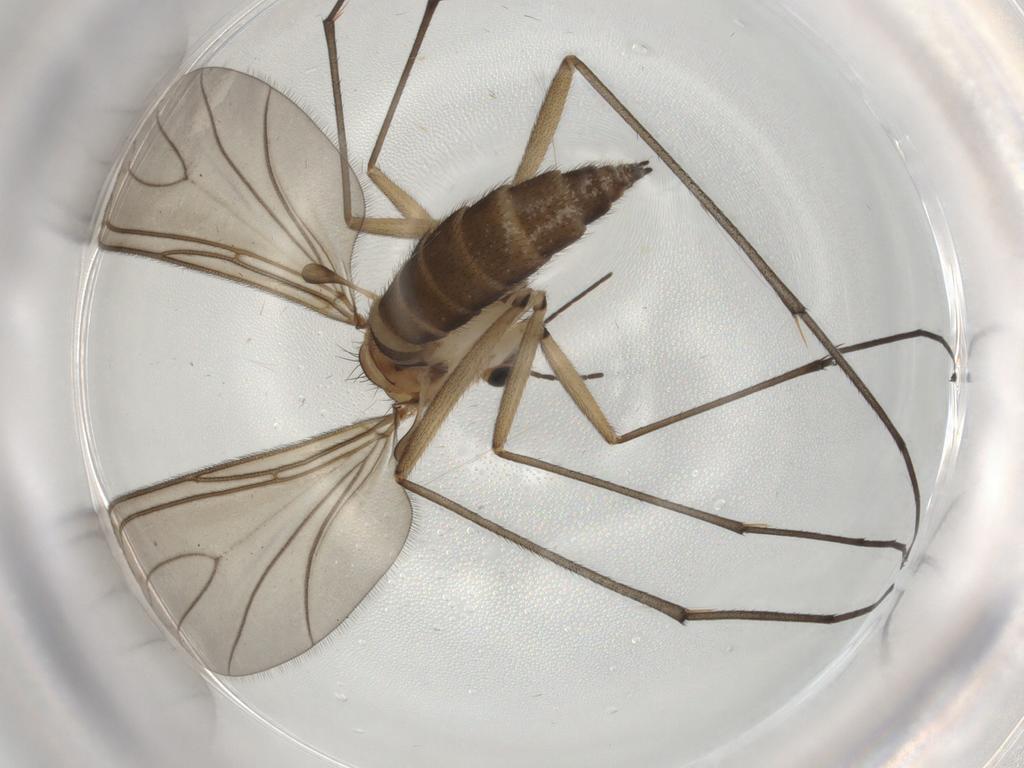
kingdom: Animalia
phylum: Arthropoda
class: Insecta
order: Diptera
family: Sciaridae
